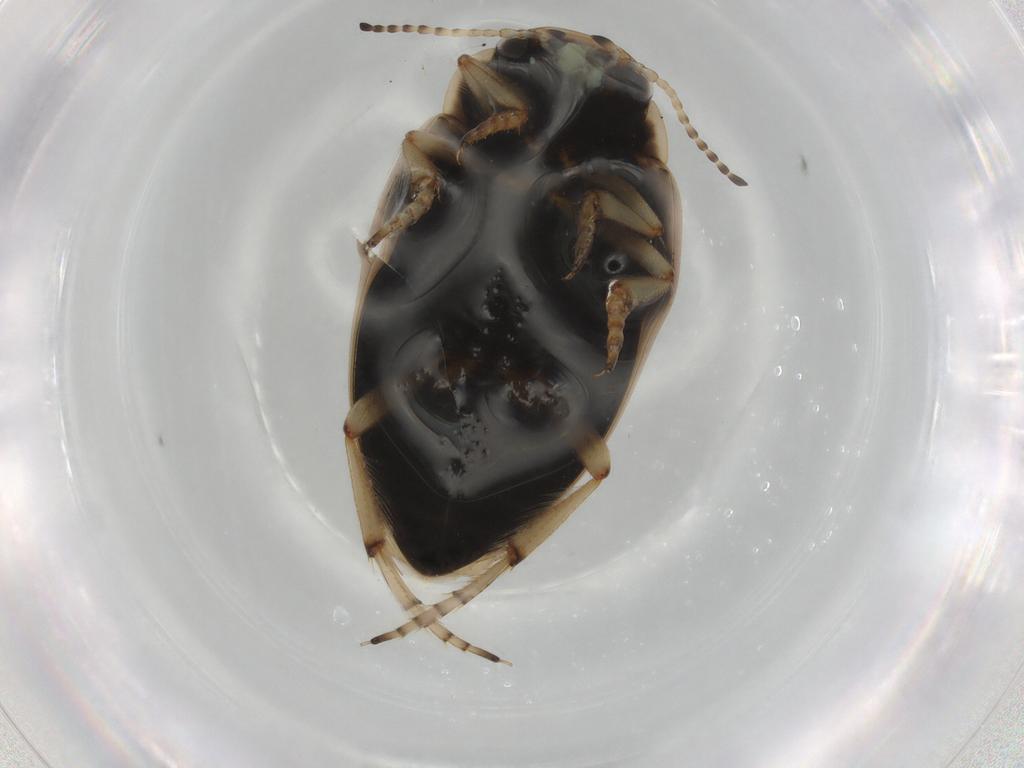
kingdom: Animalia
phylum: Arthropoda
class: Insecta
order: Coleoptera
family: Dytiscidae
